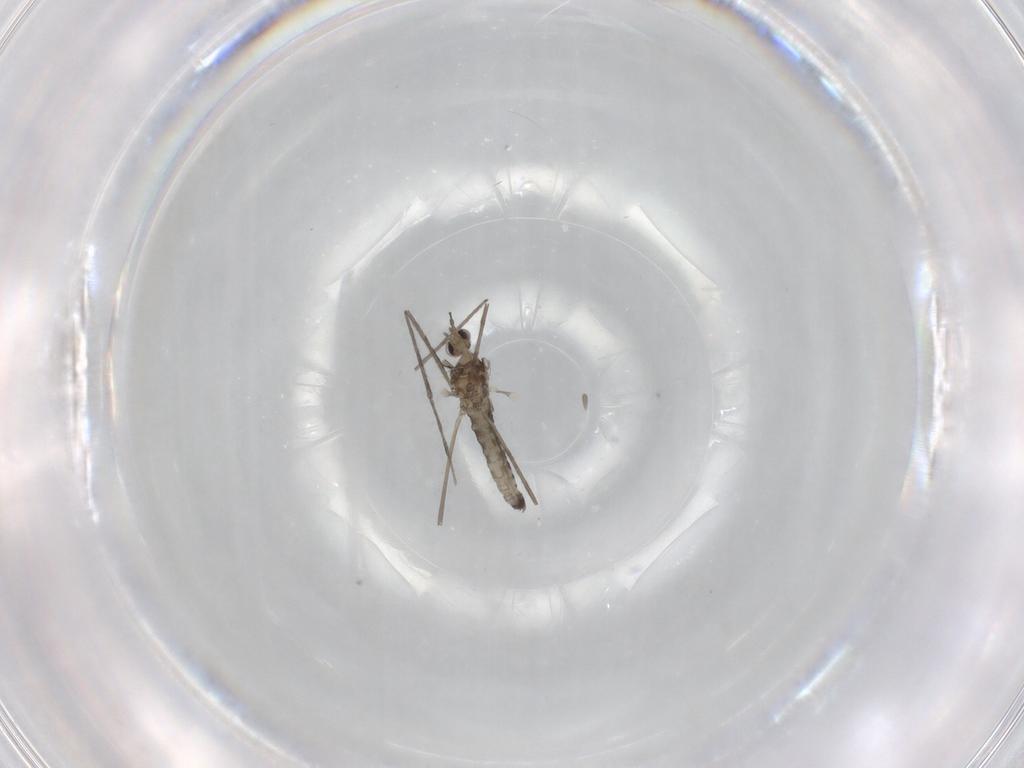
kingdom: Animalia
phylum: Arthropoda
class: Insecta
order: Diptera
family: Cecidomyiidae
